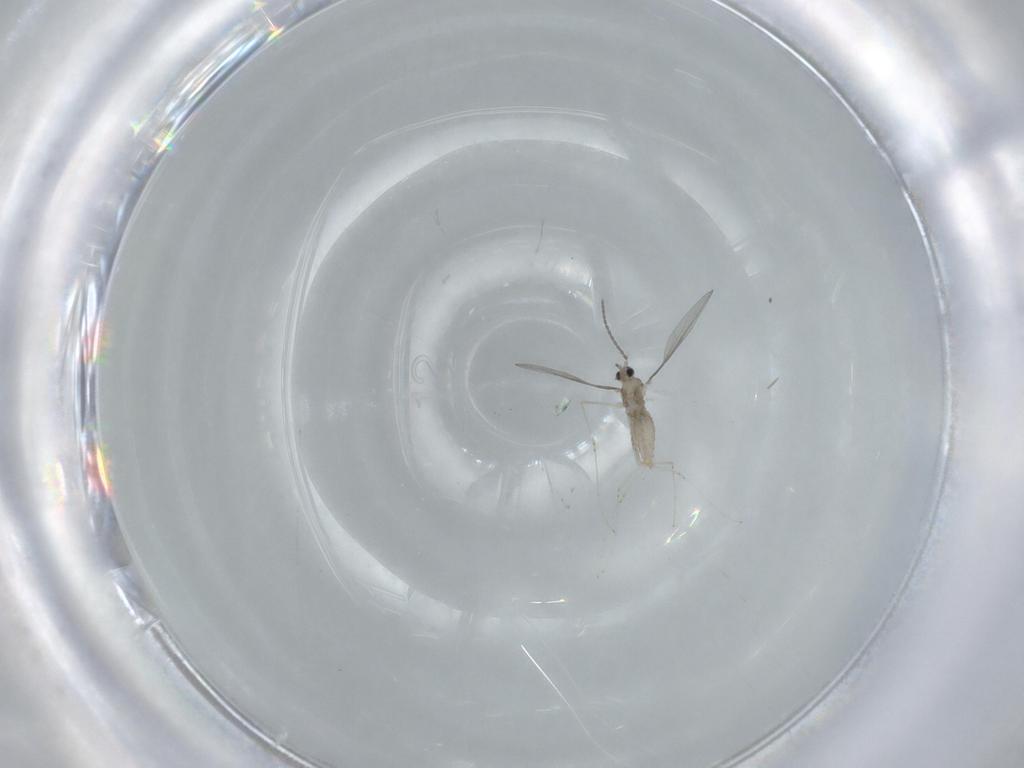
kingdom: Animalia
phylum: Arthropoda
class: Insecta
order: Diptera
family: Cecidomyiidae
